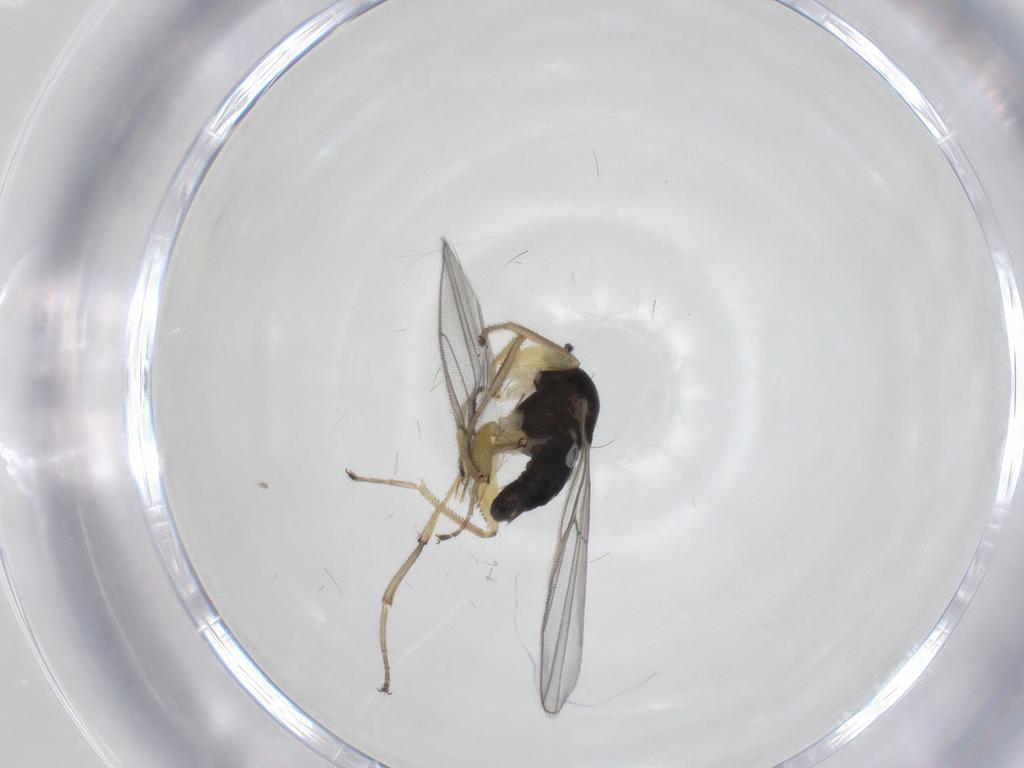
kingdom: Animalia
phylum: Arthropoda
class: Insecta
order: Diptera
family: Hybotidae
